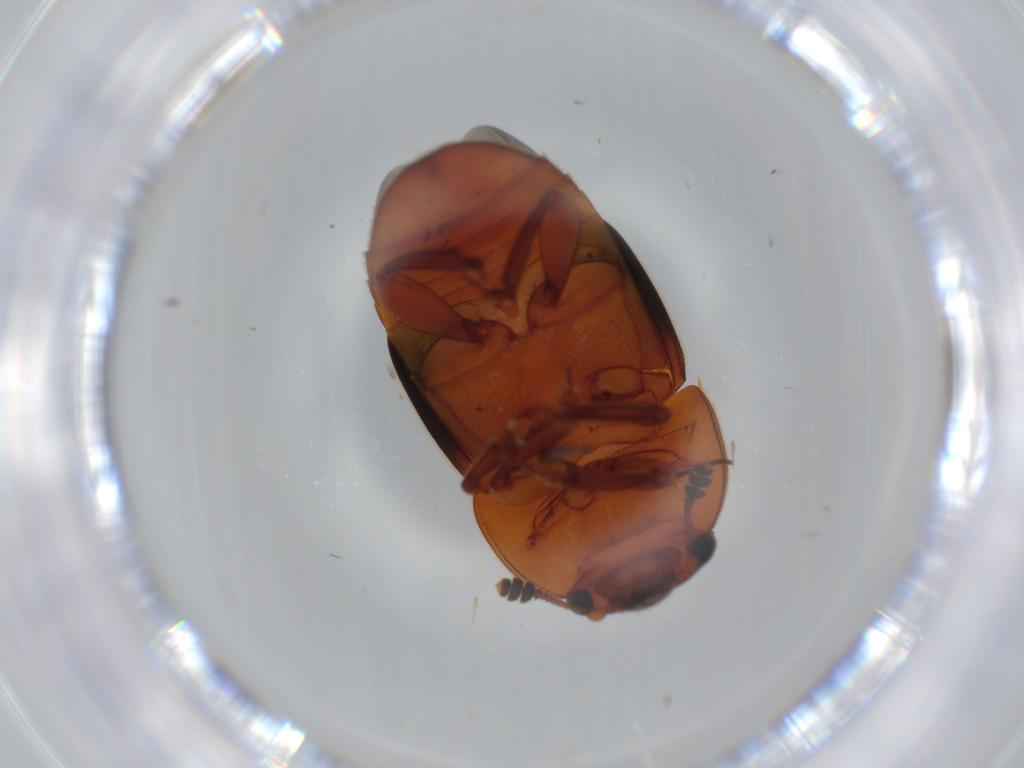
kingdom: Animalia
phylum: Arthropoda
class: Insecta
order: Coleoptera
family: Nitidulidae
